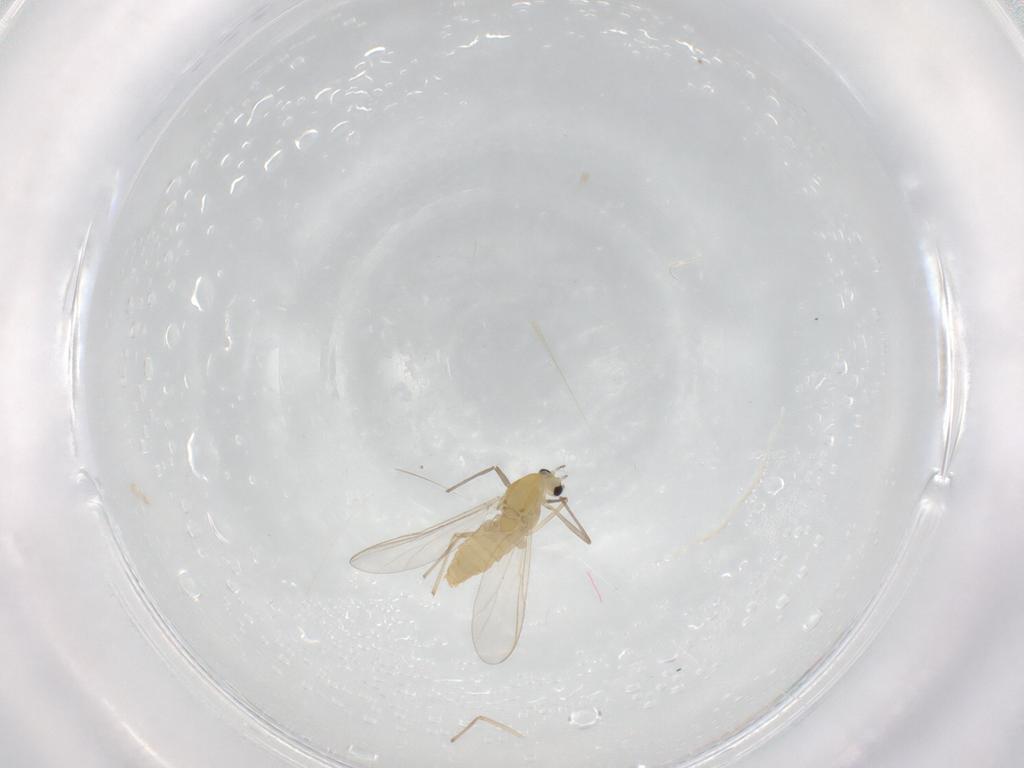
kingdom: Animalia
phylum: Arthropoda
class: Insecta
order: Diptera
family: Chironomidae
